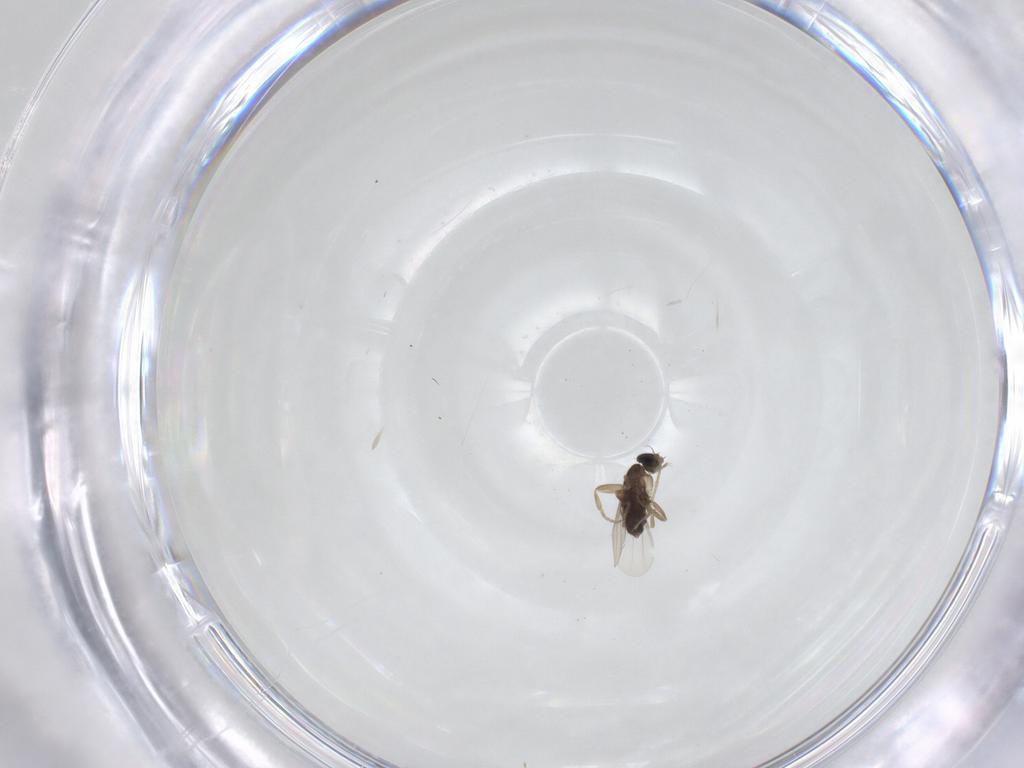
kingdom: Animalia
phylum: Arthropoda
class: Insecta
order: Diptera
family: Phoridae
